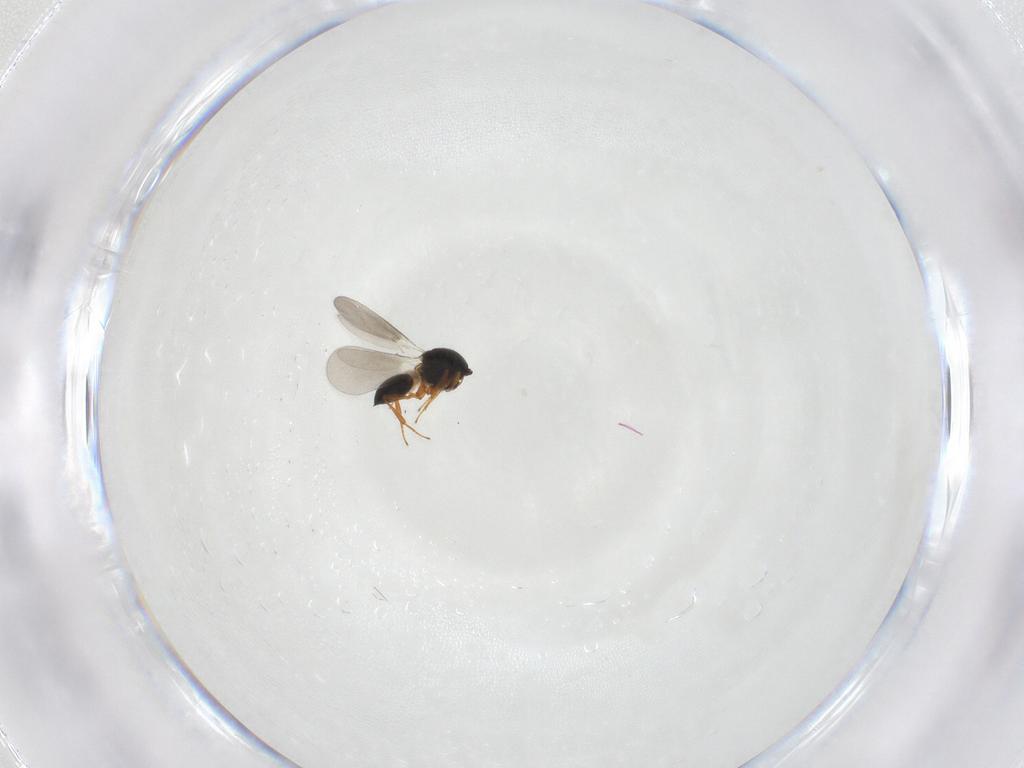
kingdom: Animalia
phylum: Arthropoda
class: Insecta
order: Hymenoptera
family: Platygastridae
